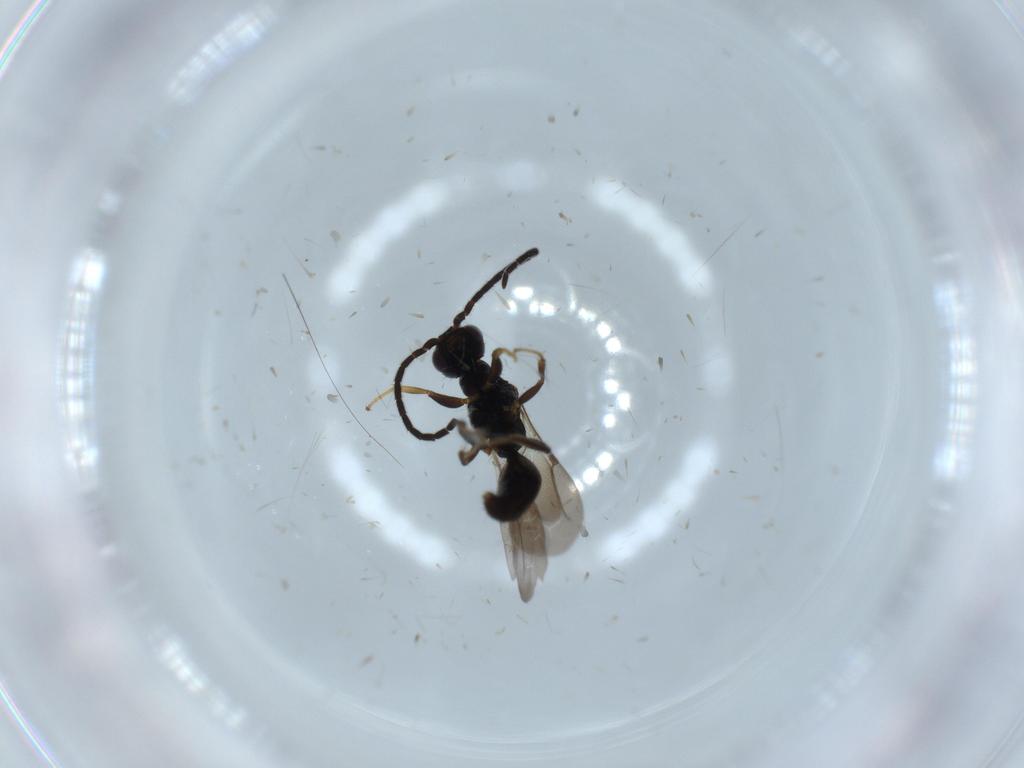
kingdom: Animalia
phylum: Arthropoda
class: Insecta
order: Hymenoptera
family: Bethylidae
